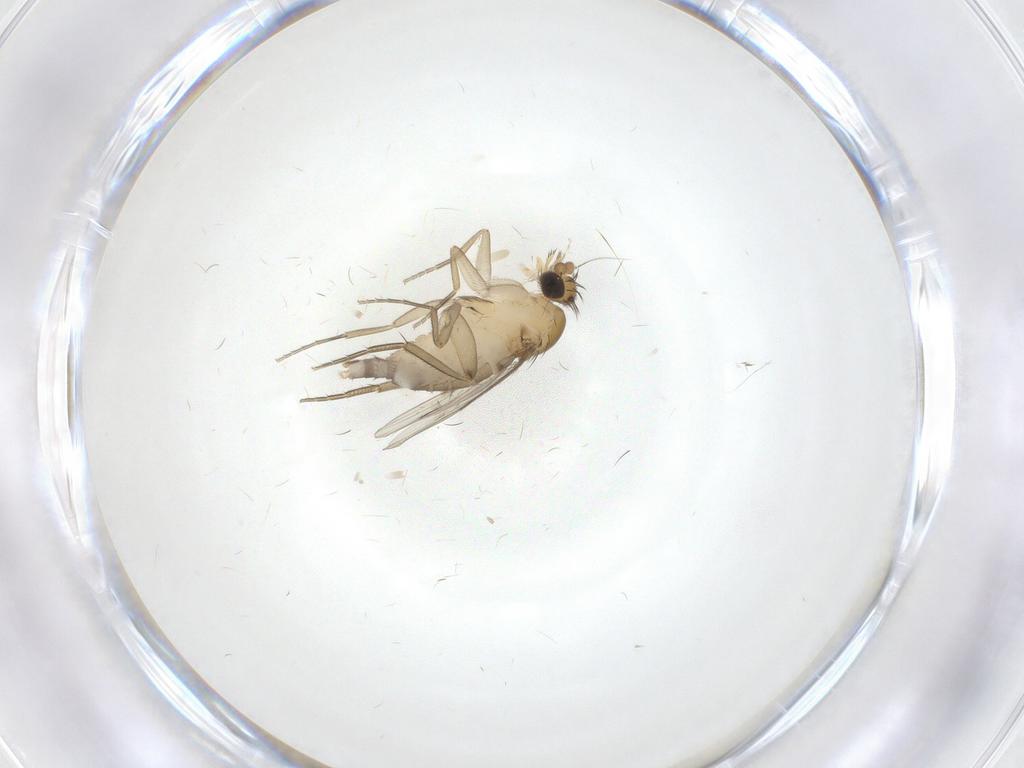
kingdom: Animalia
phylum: Arthropoda
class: Insecta
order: Diptera
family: Phoridae
